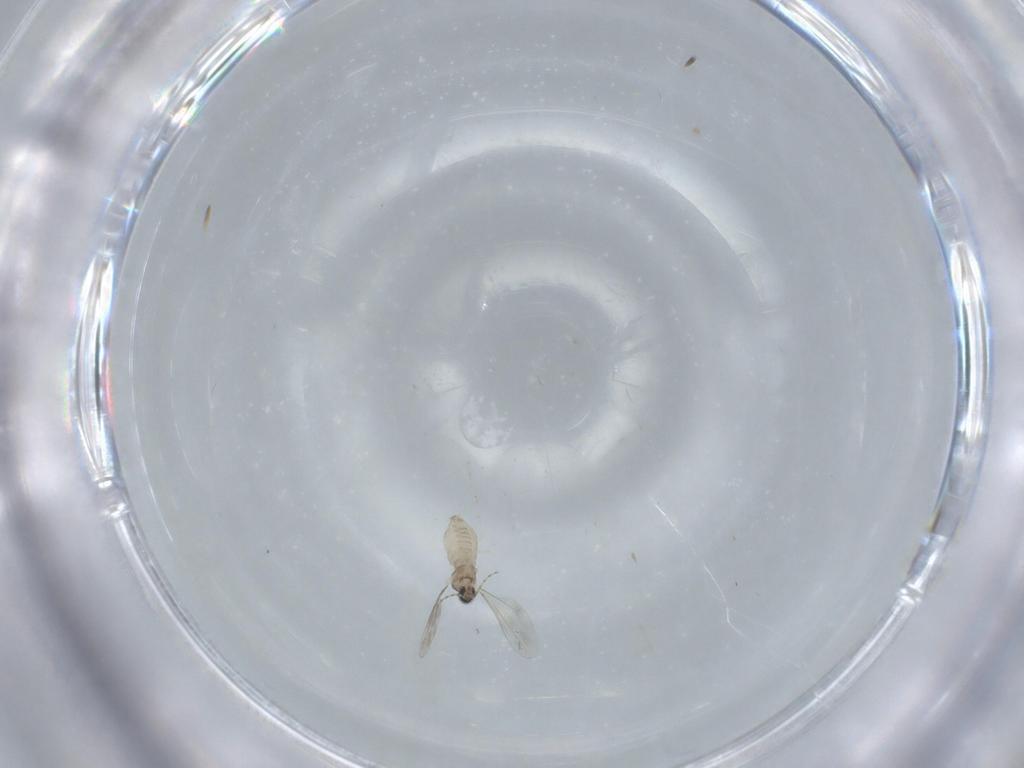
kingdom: Animalia
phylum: Arthropoda
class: Insecta
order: Diptera
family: Cecidomyiidae
